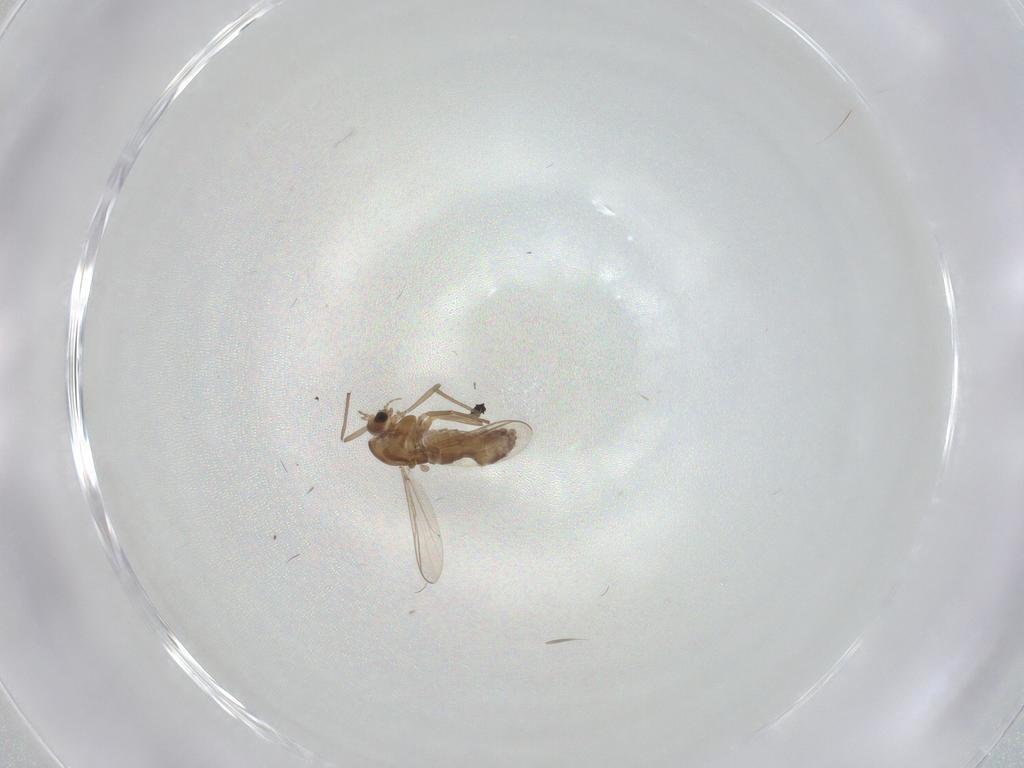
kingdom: Animalia
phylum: Arthropoda
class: Insecta
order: Diptera
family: Chironomidae
